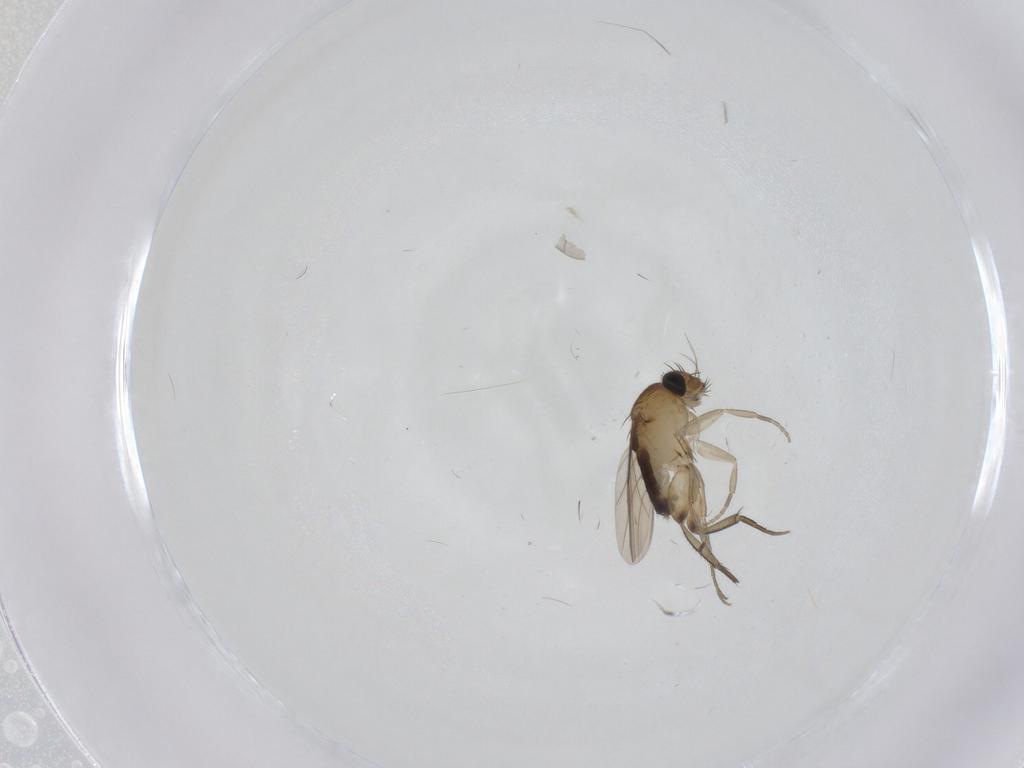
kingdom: Animalia
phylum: Arthropoda
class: Insecta
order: Diptera
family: Phoridae
